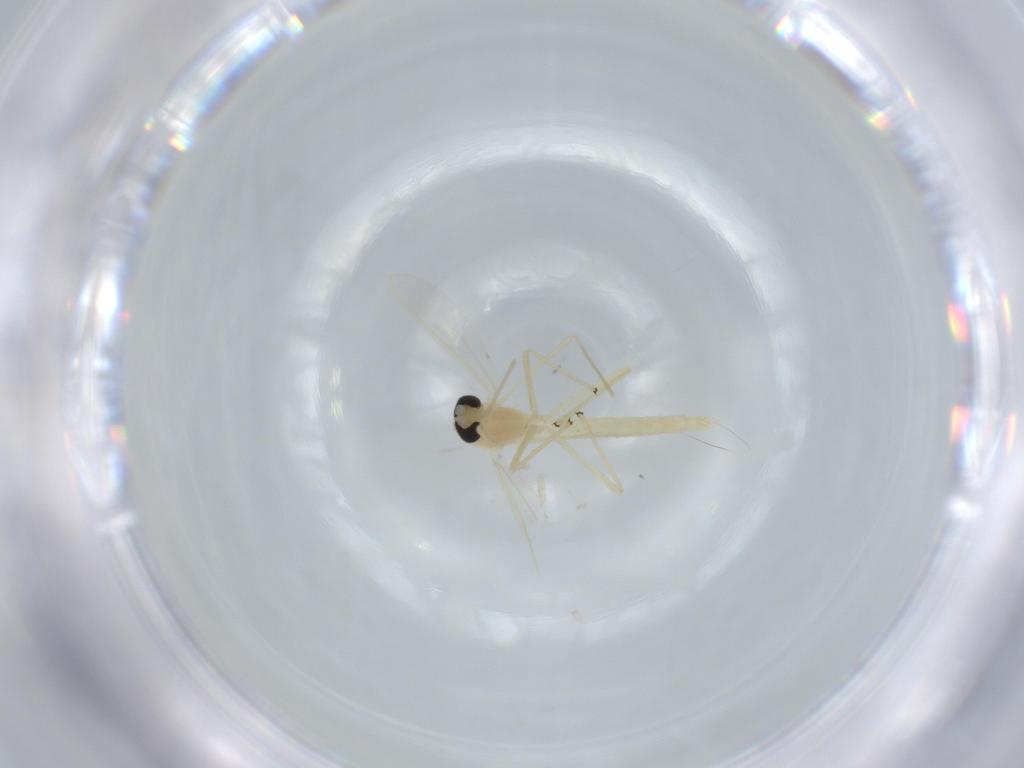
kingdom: Animalia
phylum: Arthropoda
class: Insecta
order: Diptera
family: Chironomidae
